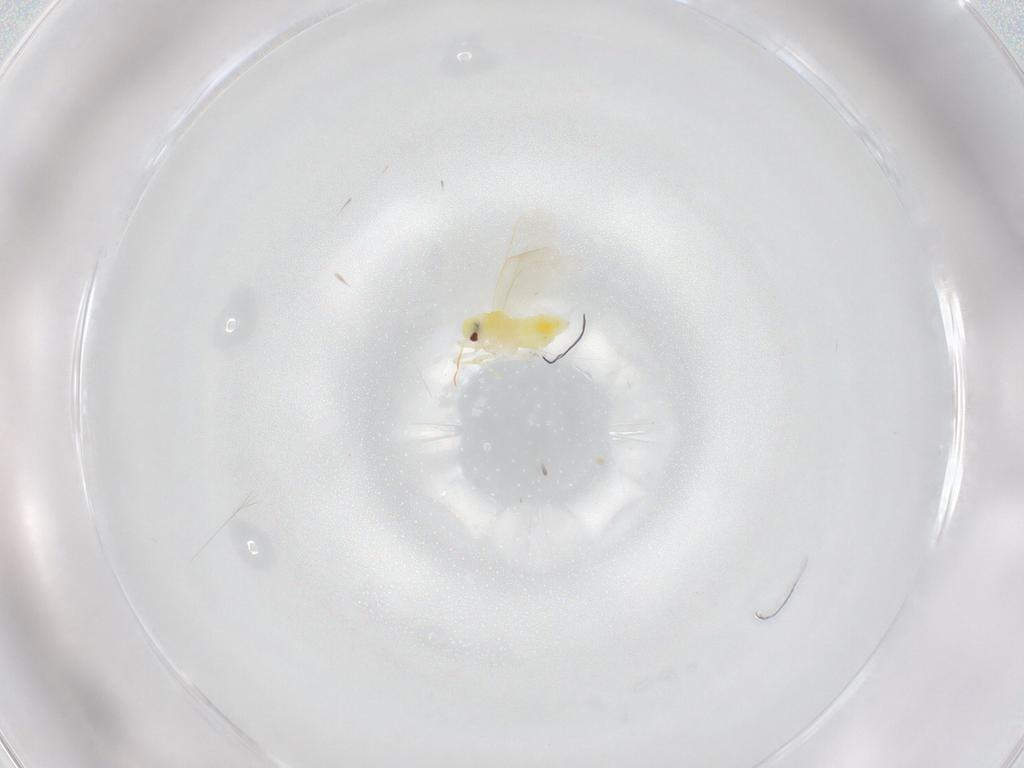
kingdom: Animalia
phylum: Arthropoda
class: Insecta
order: Hemiptera
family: Aleyrodidae
